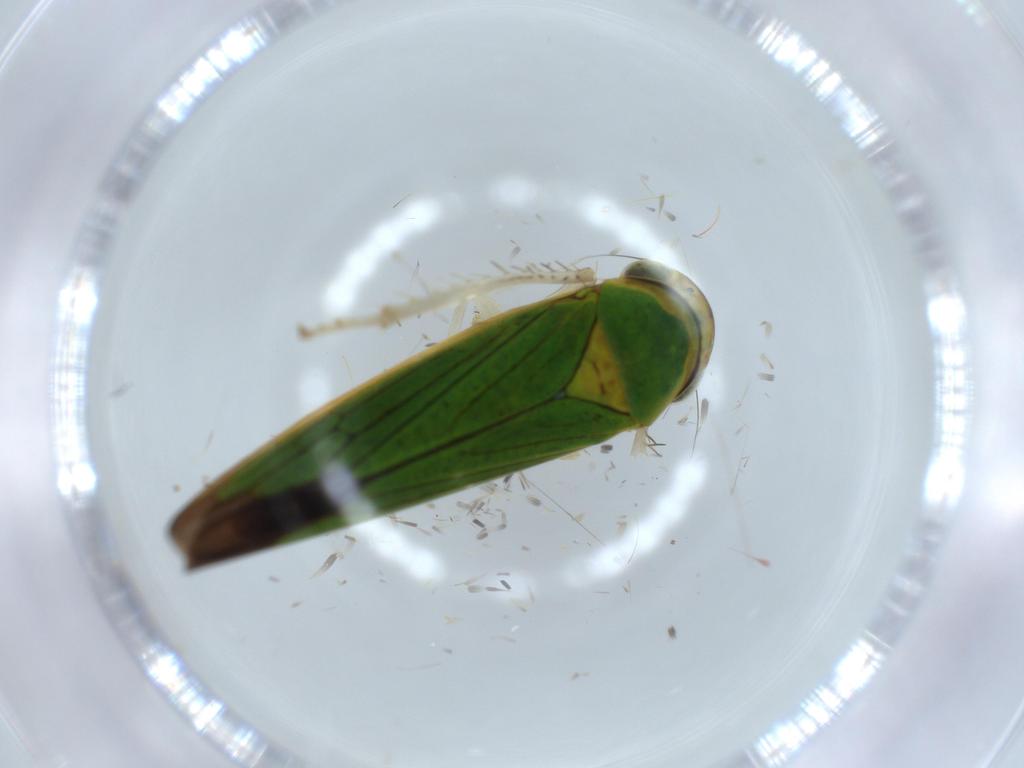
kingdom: Animalia
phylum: Arthropoda
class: Insecta
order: Hemiptera
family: Cicadellidae
